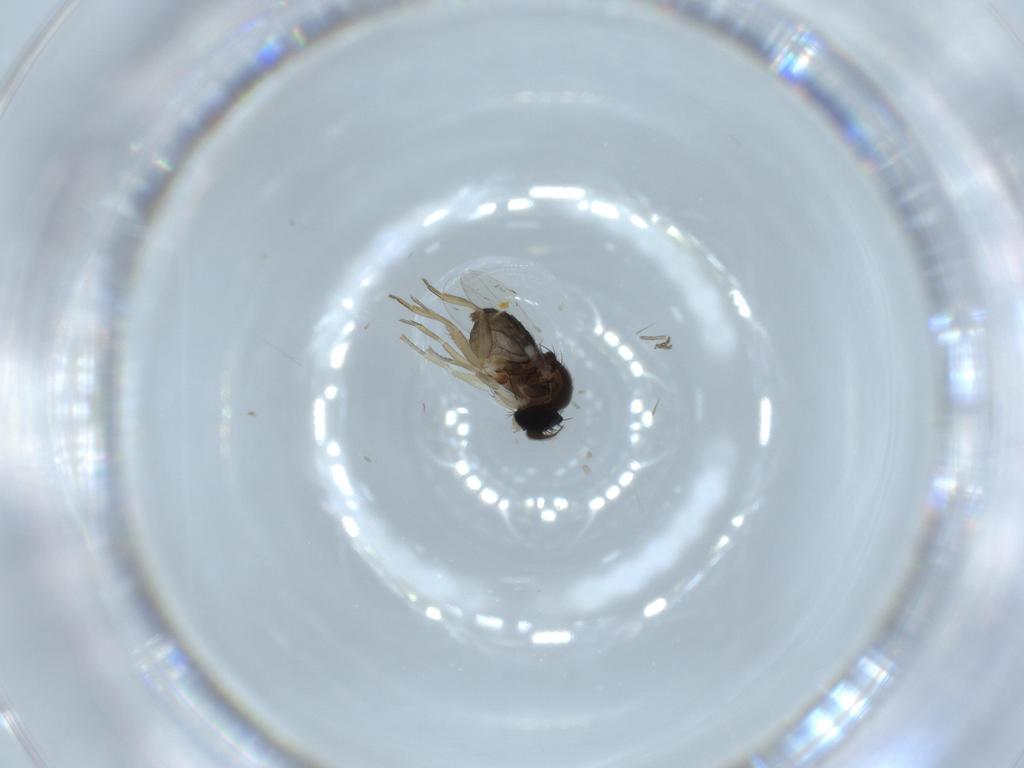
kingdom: Animalia
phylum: Arthropoda
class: Insecta
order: Diptera
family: Phoridae
